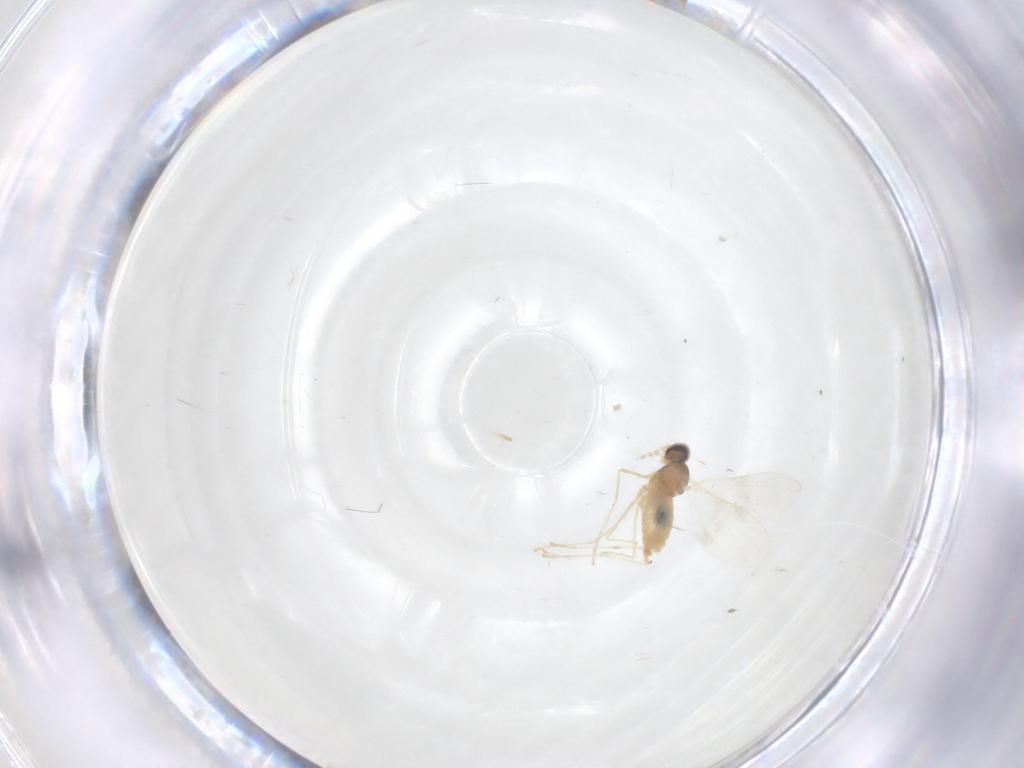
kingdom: Animalia
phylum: Arthropoda
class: Insecta
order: Diptera
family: Cecidomyiidae
